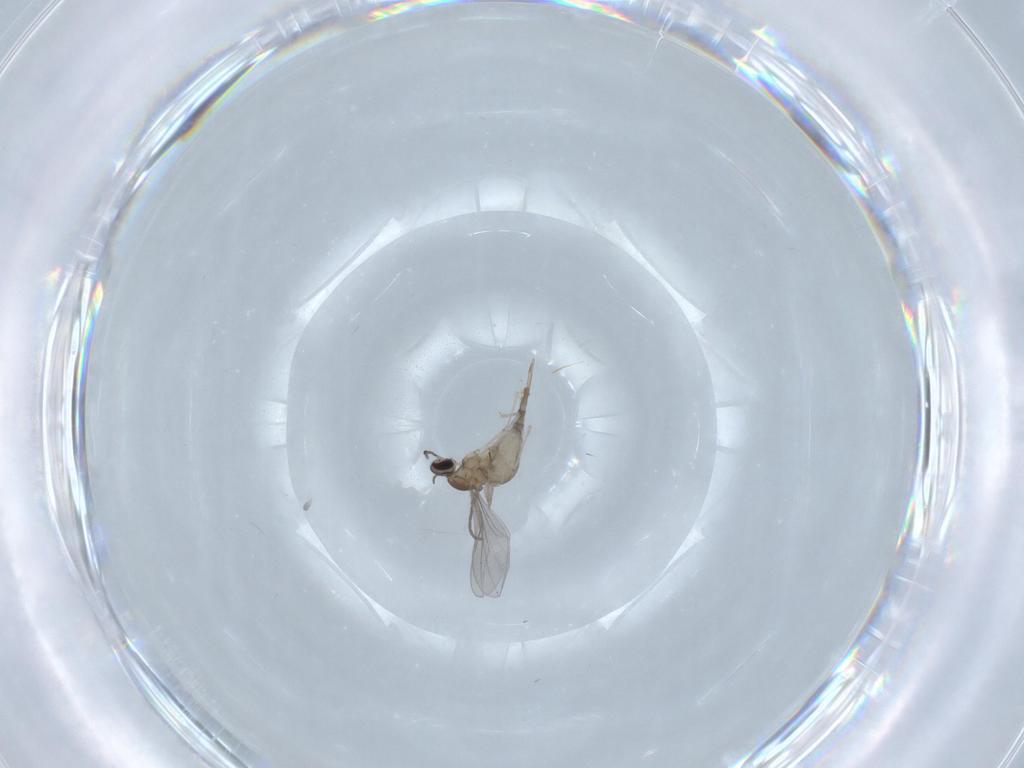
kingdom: Animalia
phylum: Arthropoda
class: Insecta
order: Diptera
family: Cecidomyiidae
